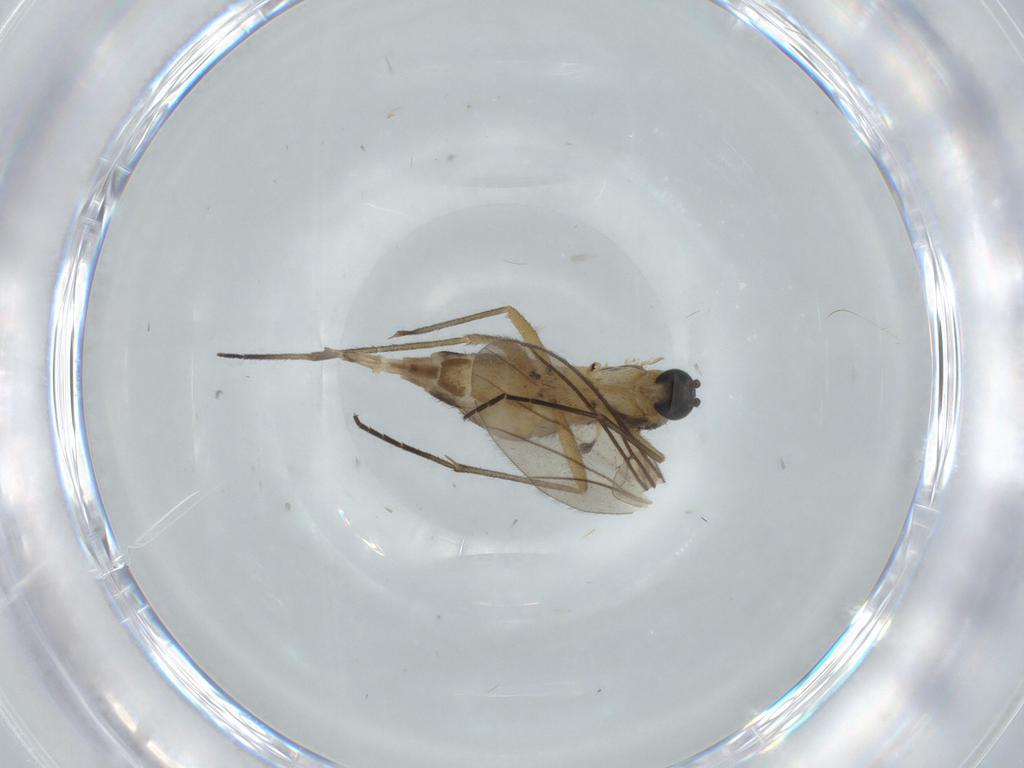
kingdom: Animalia
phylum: Arthropoda
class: Insecta
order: Diptera
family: Sciaridae
